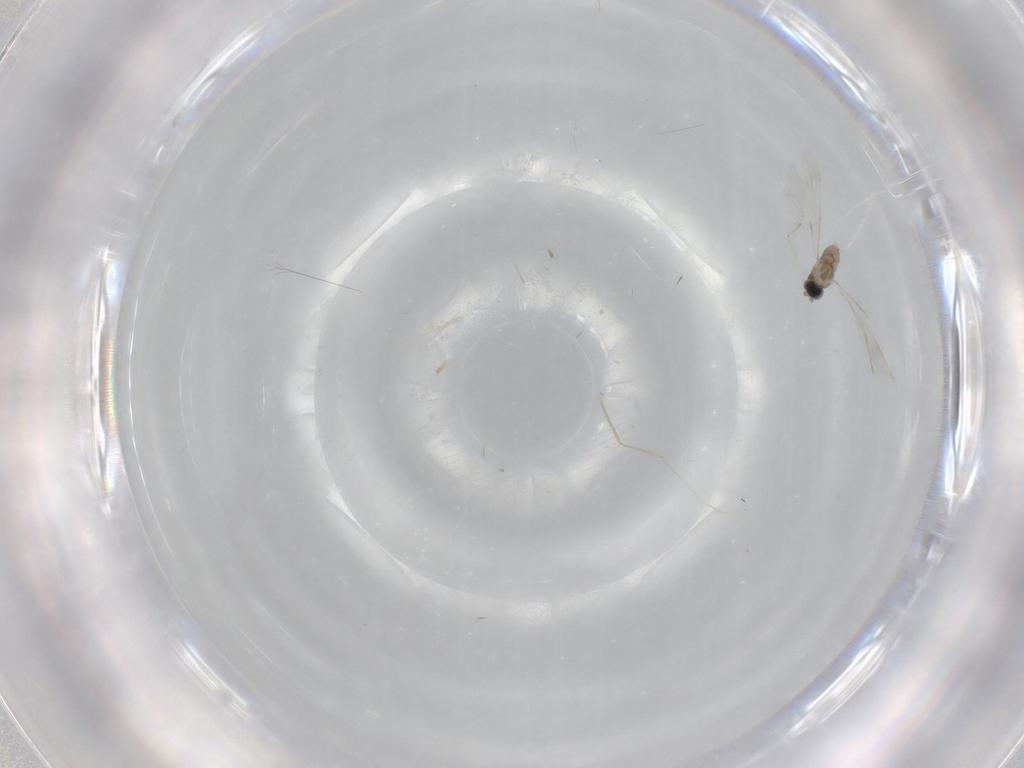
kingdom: Animalia
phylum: Arthropoda
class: Insecta
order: Diptera
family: Cecidomyiidae
